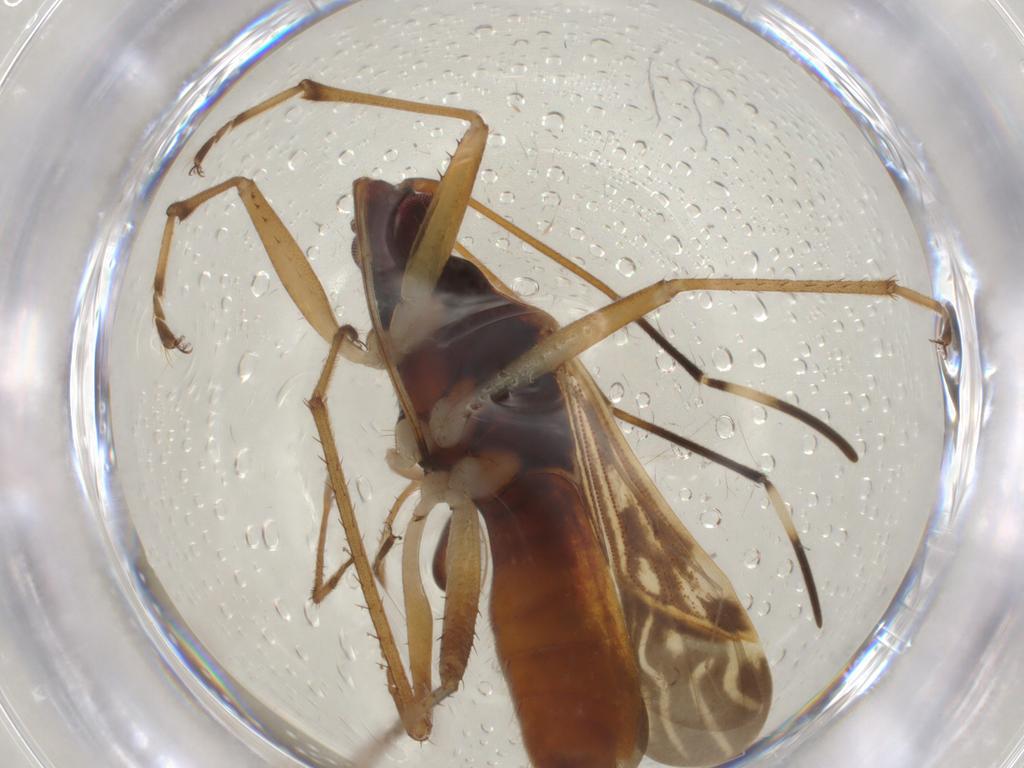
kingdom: Animalia
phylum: Arthropoda
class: Insecta
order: Hemiptera
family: Rhyparochromidae
